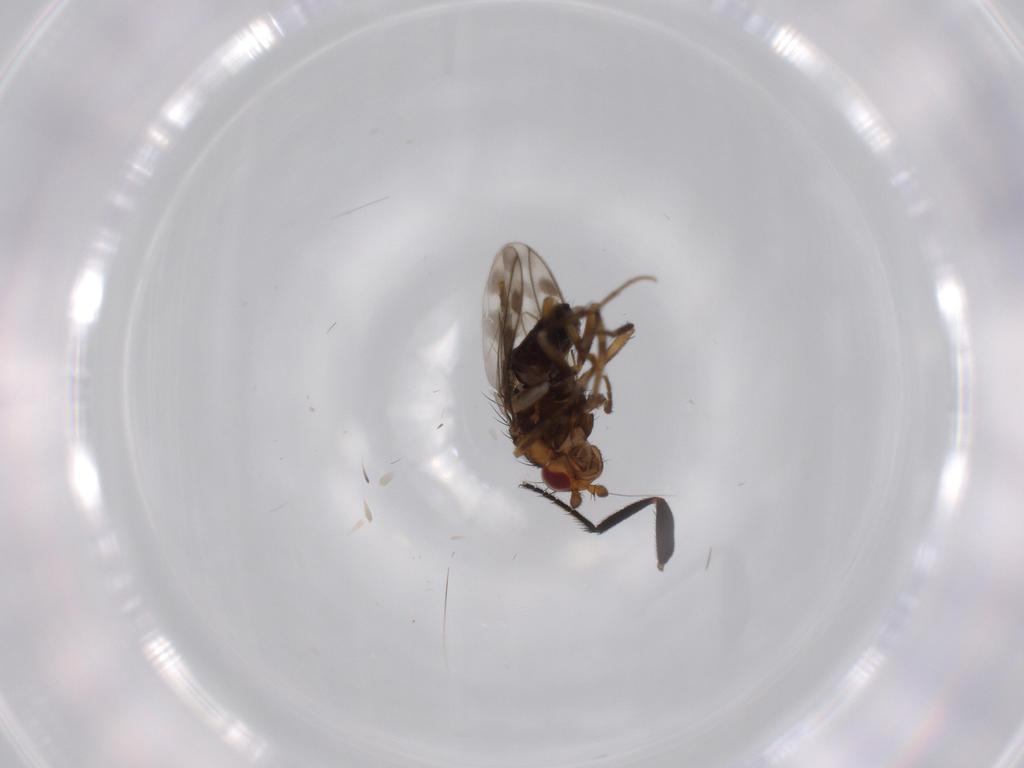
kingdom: Animalia
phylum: Arthropoda
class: Insecta
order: Diptera
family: Sphaeroceridae
